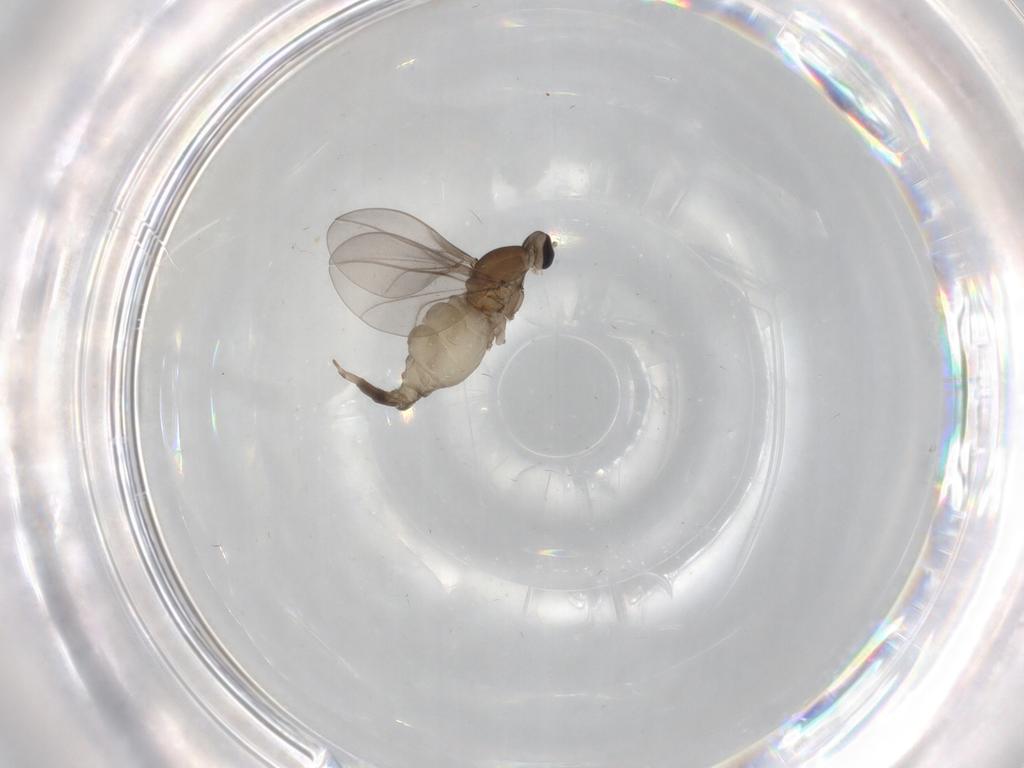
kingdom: Animalia
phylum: Arthropoda
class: Insecta
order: Diptera
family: Cecidomyiidae
